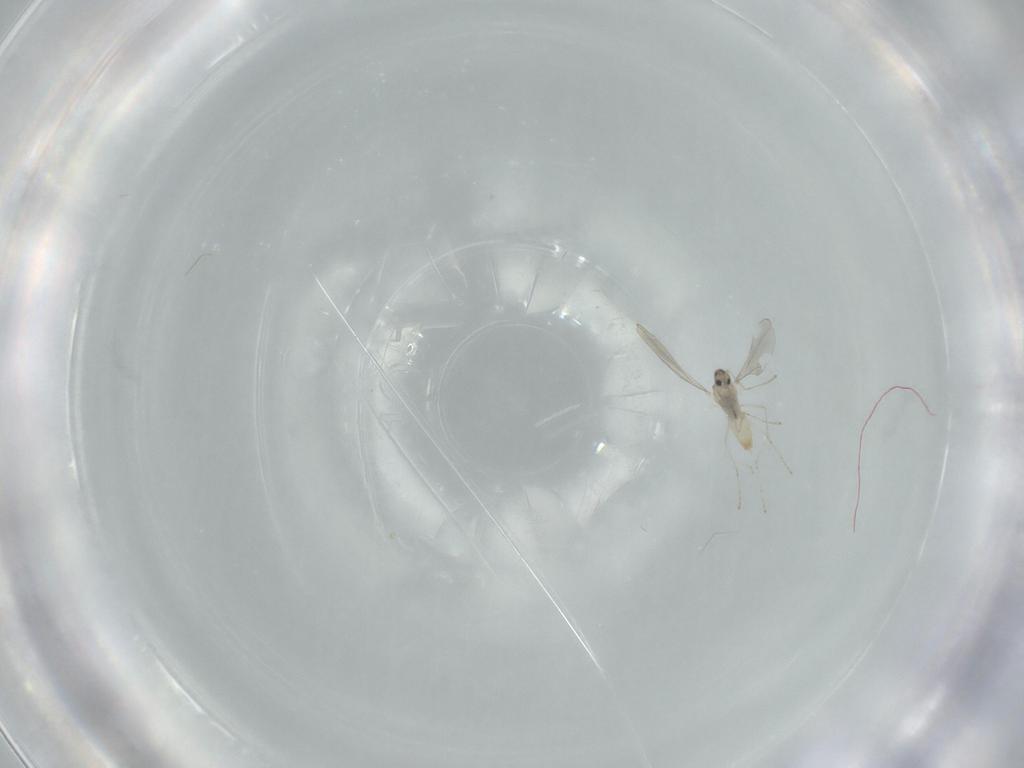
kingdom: Animalia
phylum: Arthropoda
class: Insecta
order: Diptera
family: Cecidomyiidae
